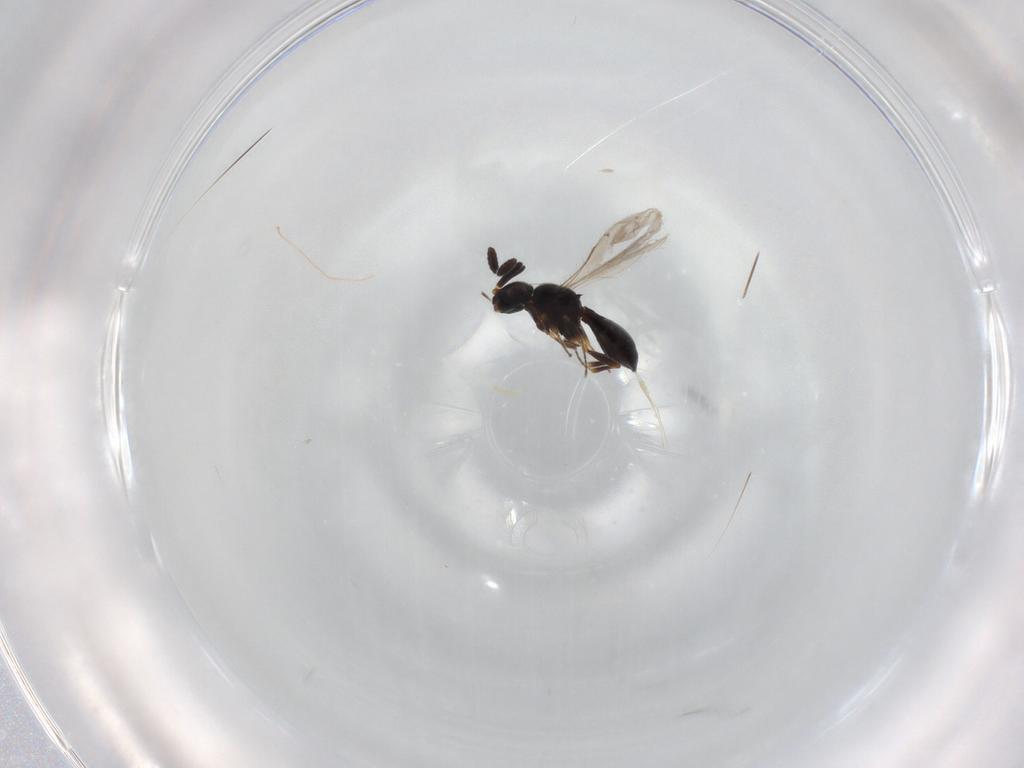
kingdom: Animalia
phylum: Arthropoda
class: Insecta
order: Hymenoptera
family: Scelionidae
